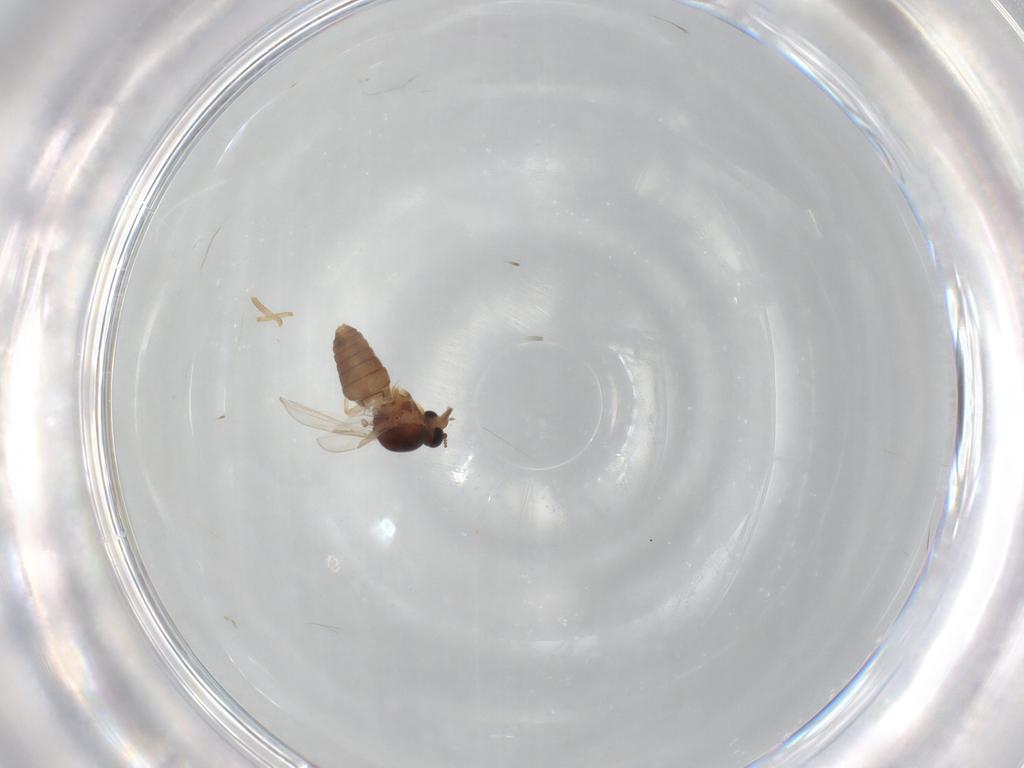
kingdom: Animalia
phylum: Arthropoda
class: Insecta
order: Diptera
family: Ceratopogonidae
